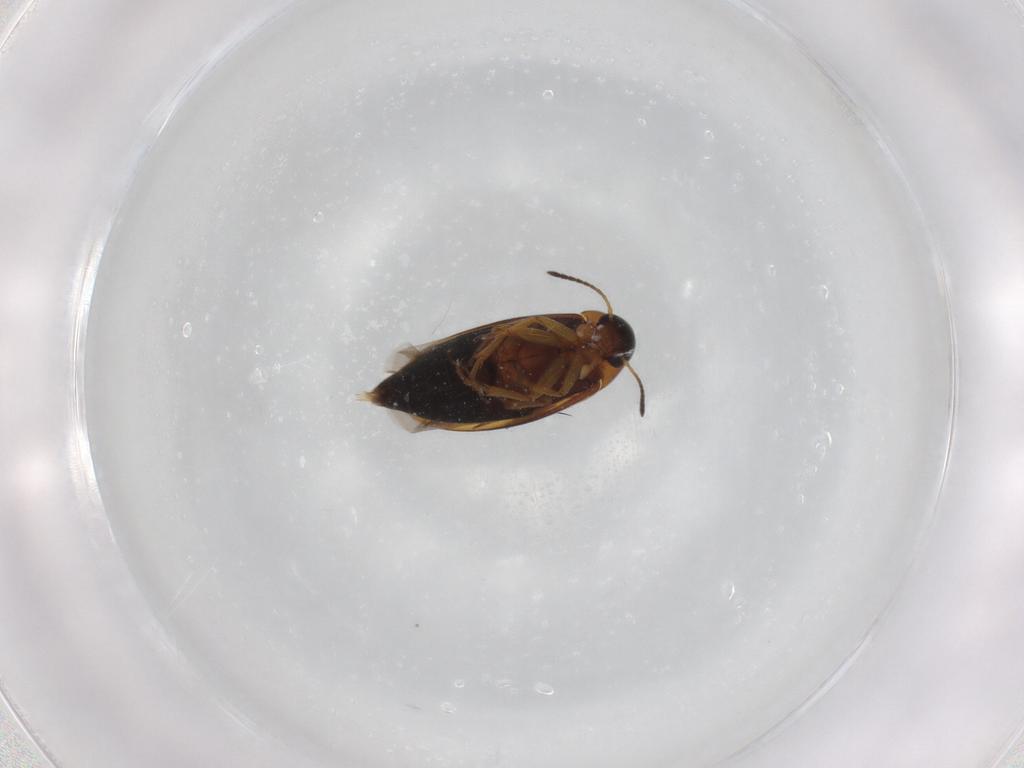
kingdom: Animalia
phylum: Arthropoda
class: Insecta
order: Coleoptera
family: Scraptiidae
